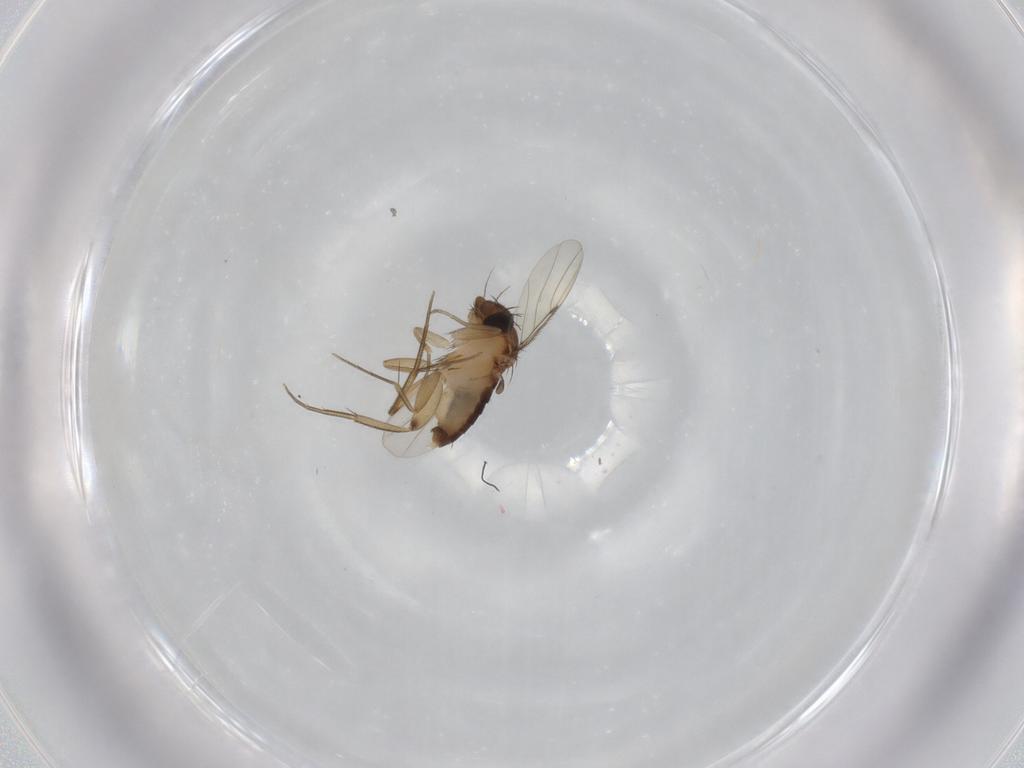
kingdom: Animalia
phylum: Arthropoda
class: Insecta
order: Diptera
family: Phoridae
